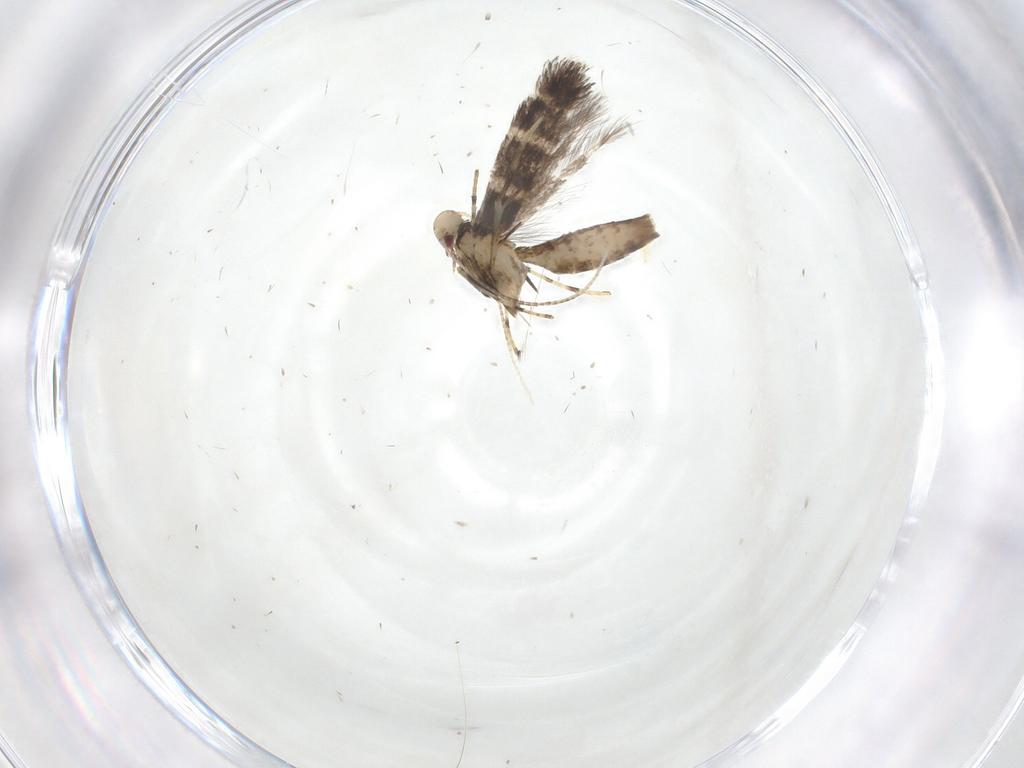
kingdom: Animalia
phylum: Arthropoda
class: Insecta
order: Lepidoptera
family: Gracillariidae
